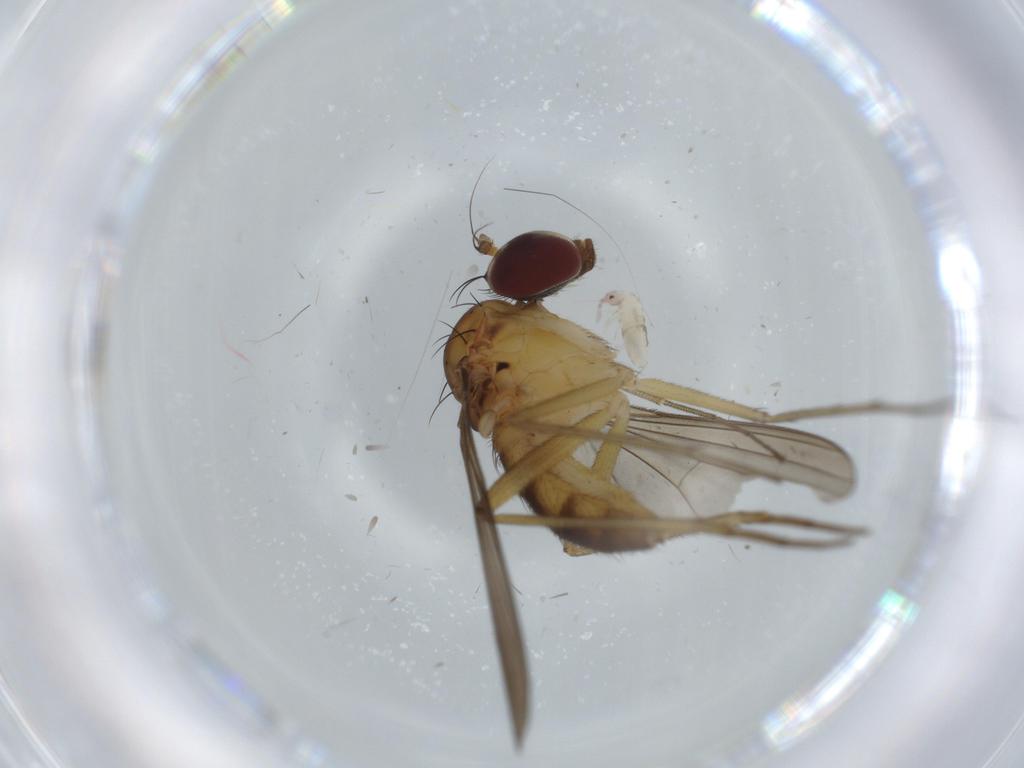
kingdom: Animalia
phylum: Arthropoda
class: Insecta
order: Diptera
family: Dolichopodidae
